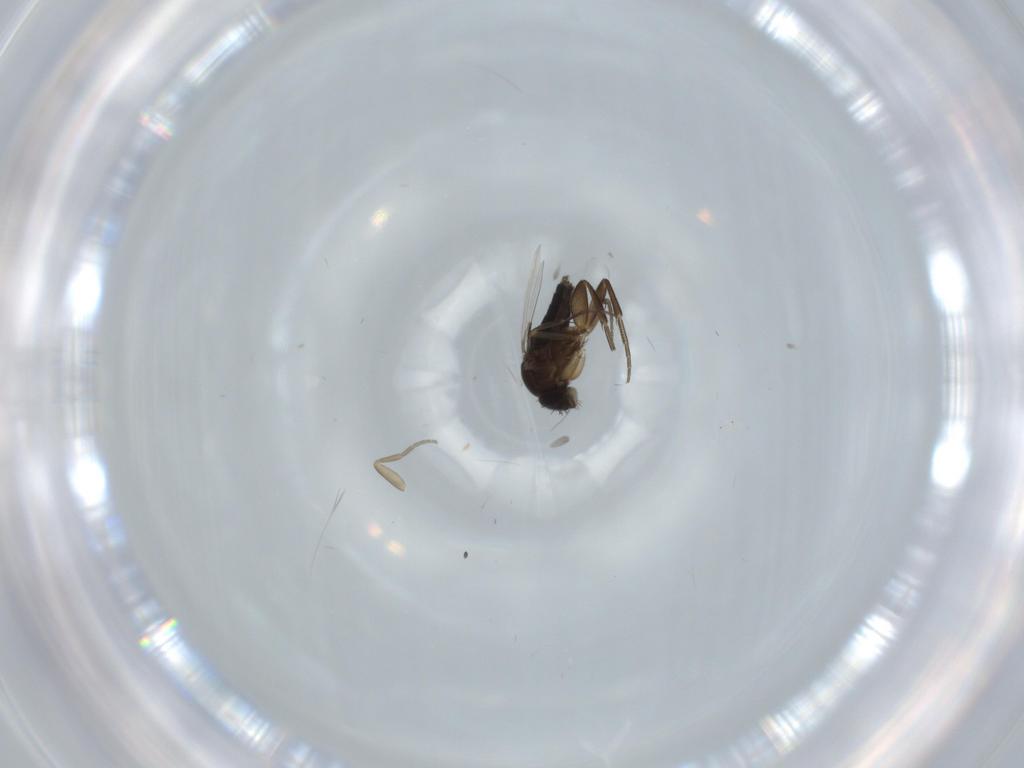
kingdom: Animalia
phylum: Arthropoda
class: Insecta
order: Diptera
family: Phoridae
